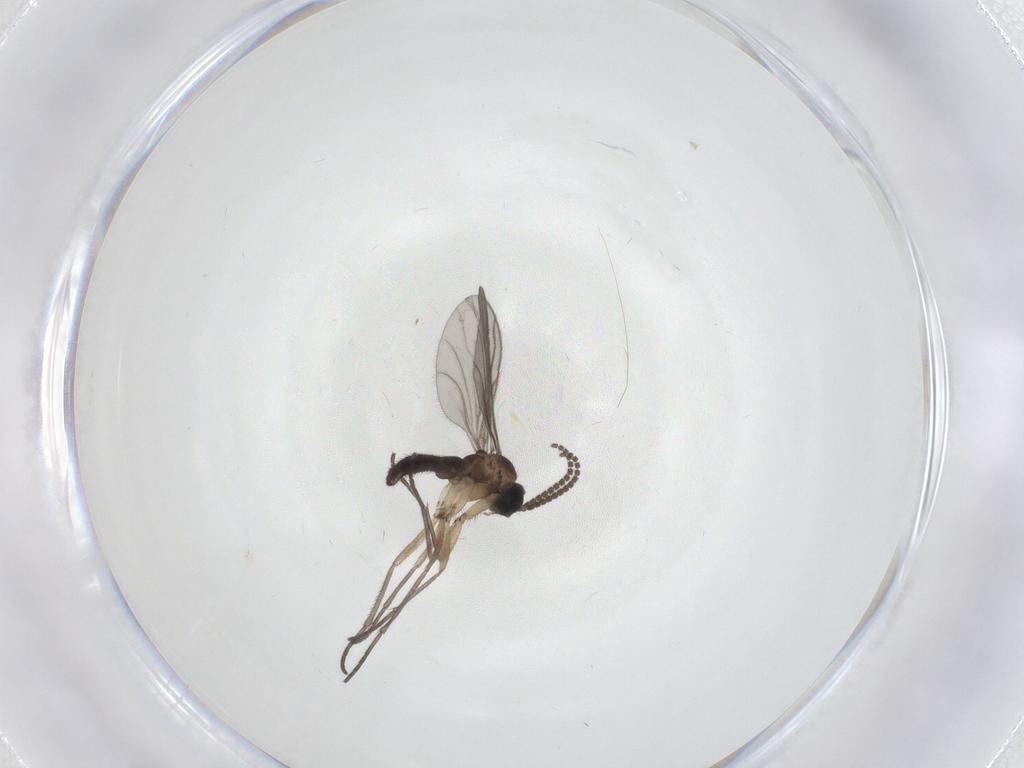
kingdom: Animalia
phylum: Arthropoda
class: Insecta
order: Diptera
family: Sciaridae
